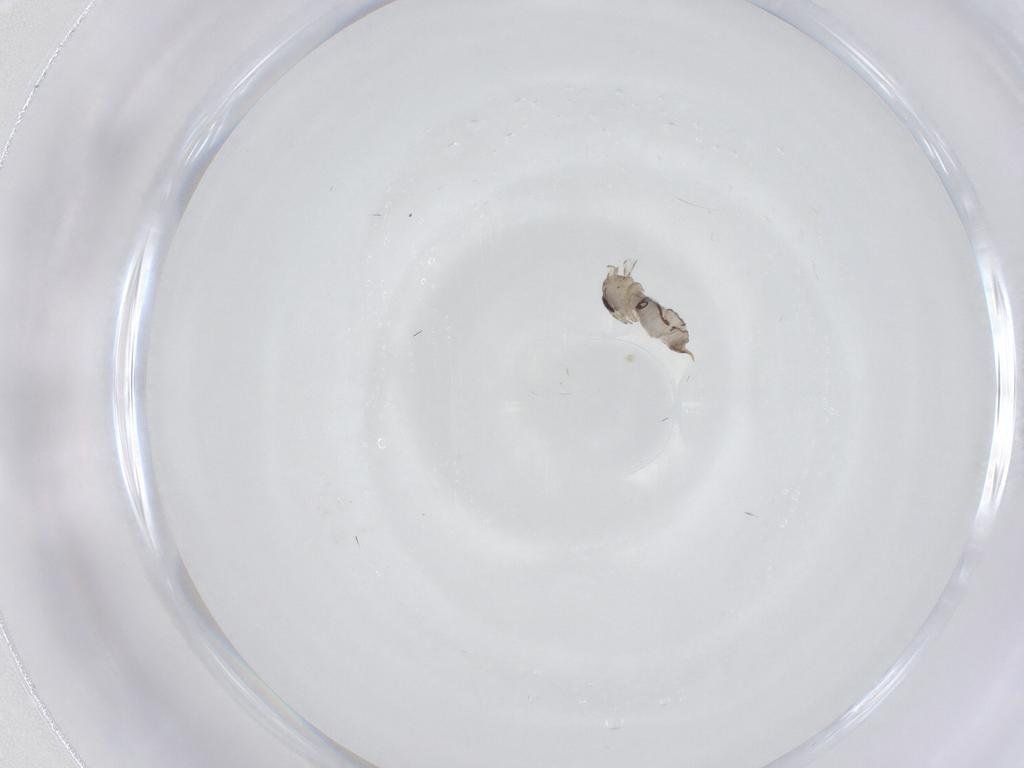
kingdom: Animalia
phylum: Arthropoda
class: Insecta
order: Diptera
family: Psychodidae
